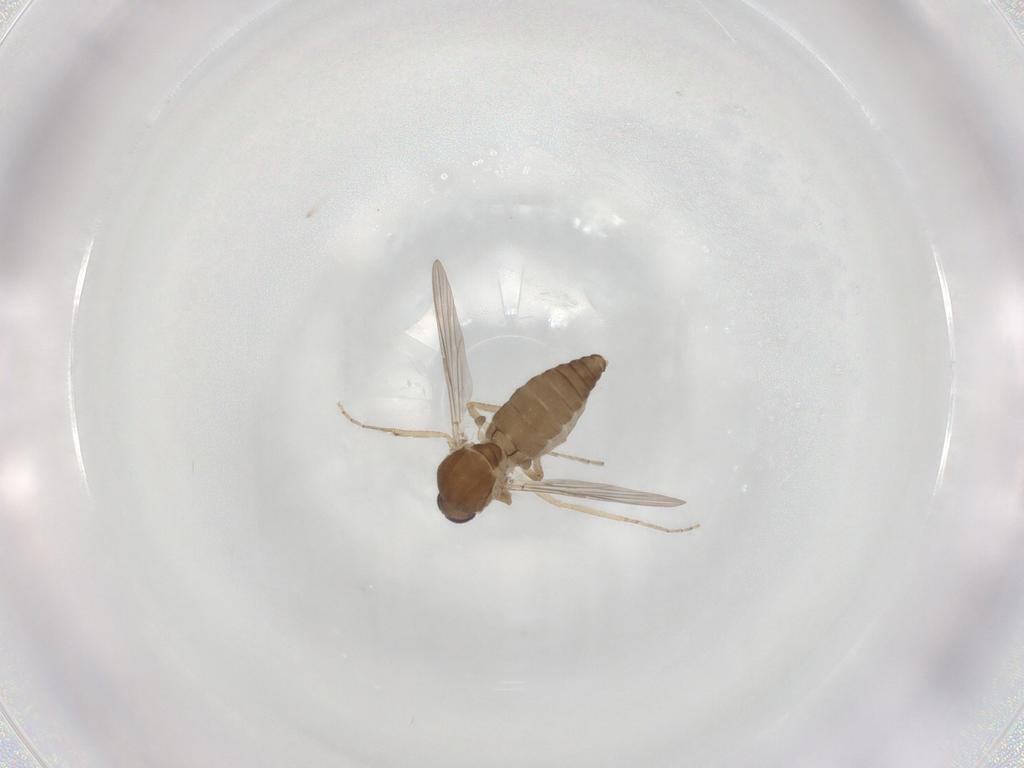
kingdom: Animalia
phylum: Arthropoda
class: Insecta
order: Diptera
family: Ceratopogonidae
